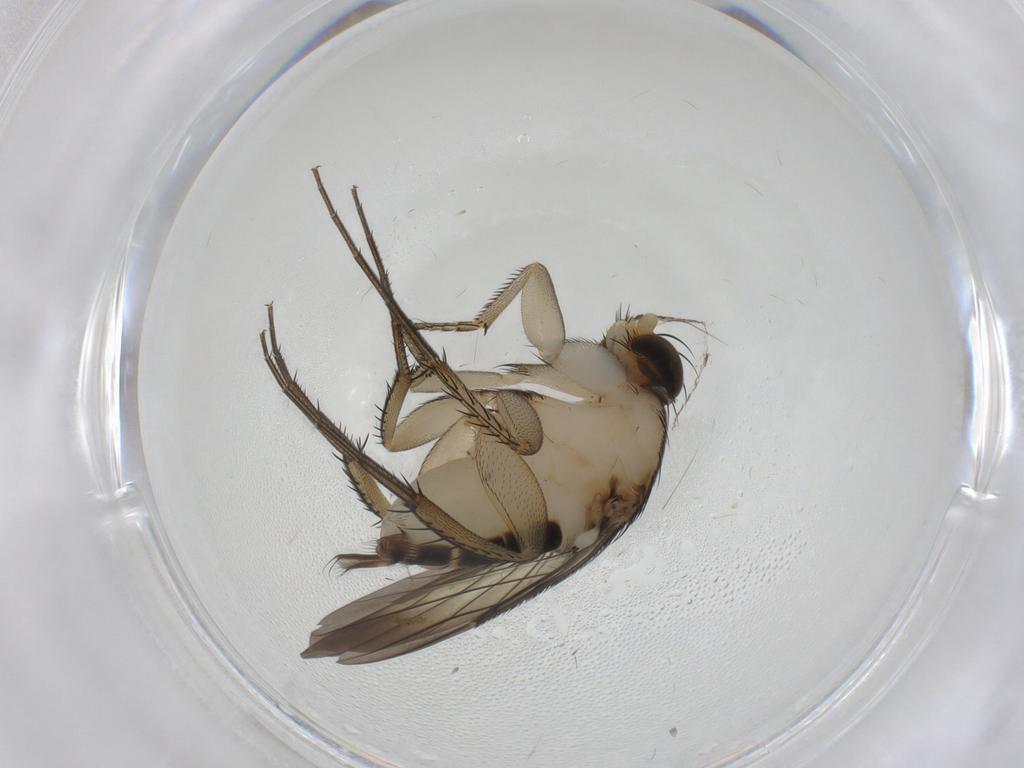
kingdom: Animalia
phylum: Arthropoda
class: Insecta
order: Diptera
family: Phoridae
